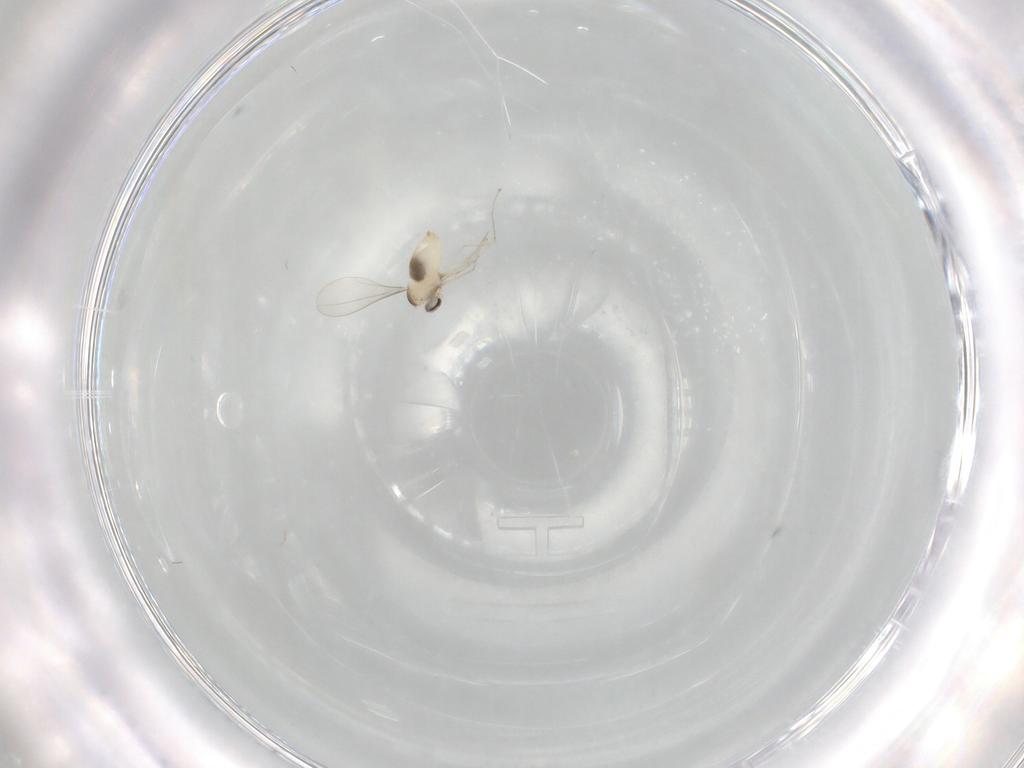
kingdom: Animalia
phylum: Arthropoda
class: Insecta
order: Diptera
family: Cecidomyiidae
